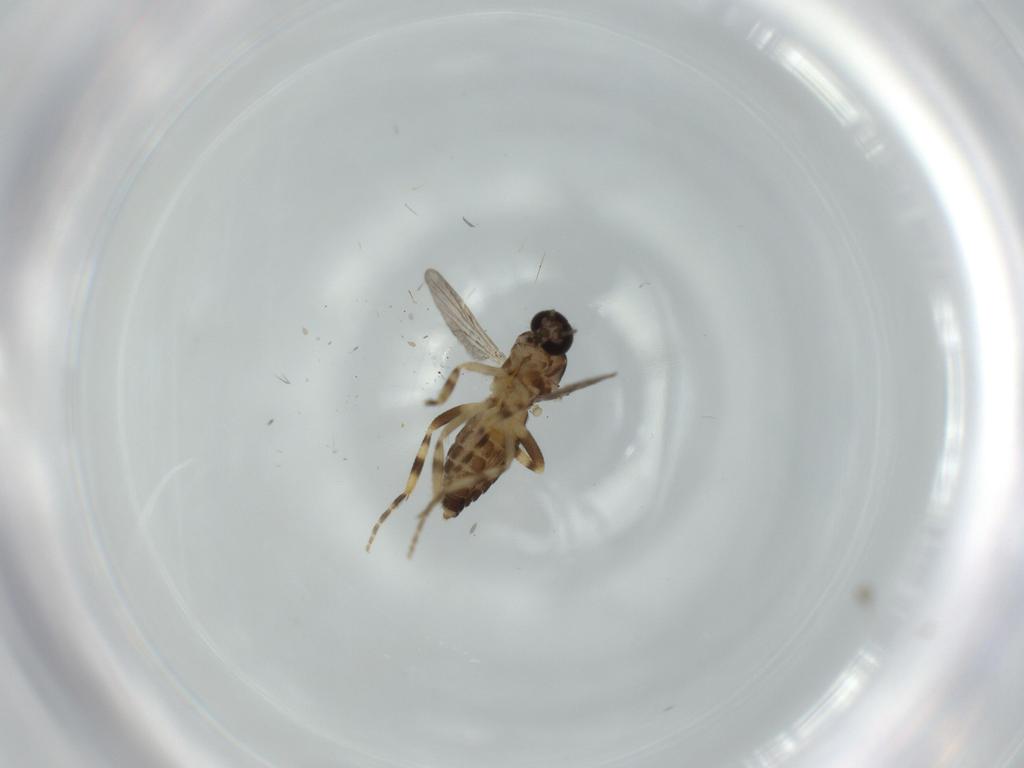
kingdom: Animalia
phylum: Arthropoda
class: Insecta
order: Diptera
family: Cecidomyiidae
